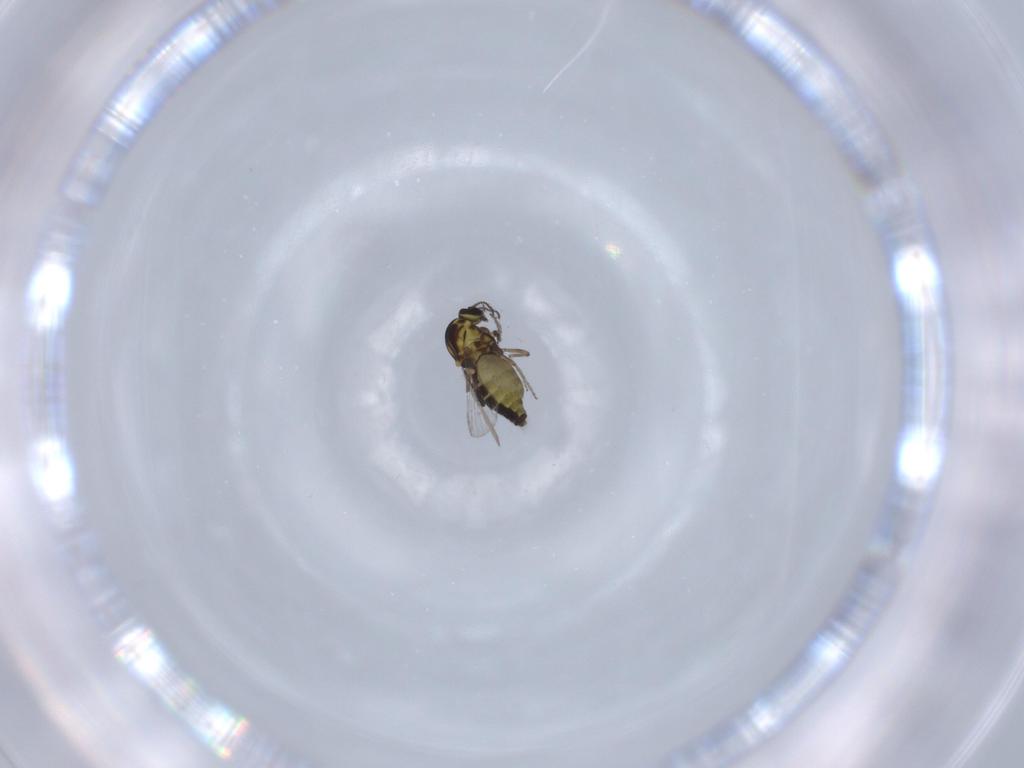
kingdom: Animalia
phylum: Arthropoda
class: Insecta
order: Diptera
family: Ceratopogonidae
